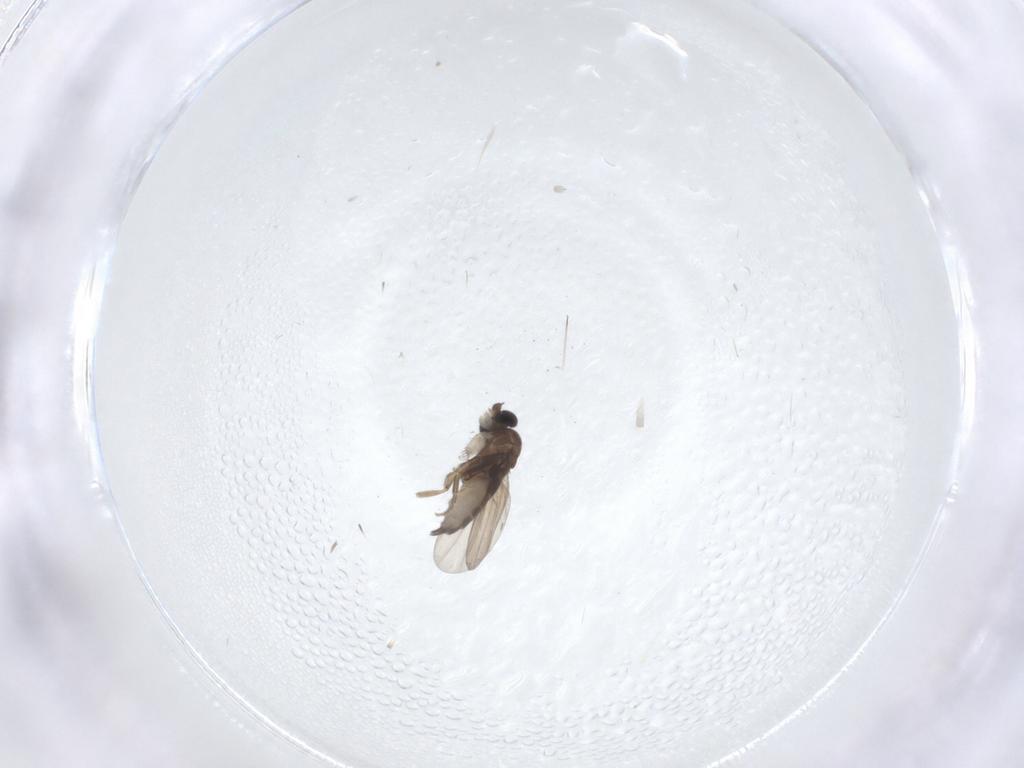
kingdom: Animalia
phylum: Arthropoda
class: Insecta
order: Diptera
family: Phoridae
